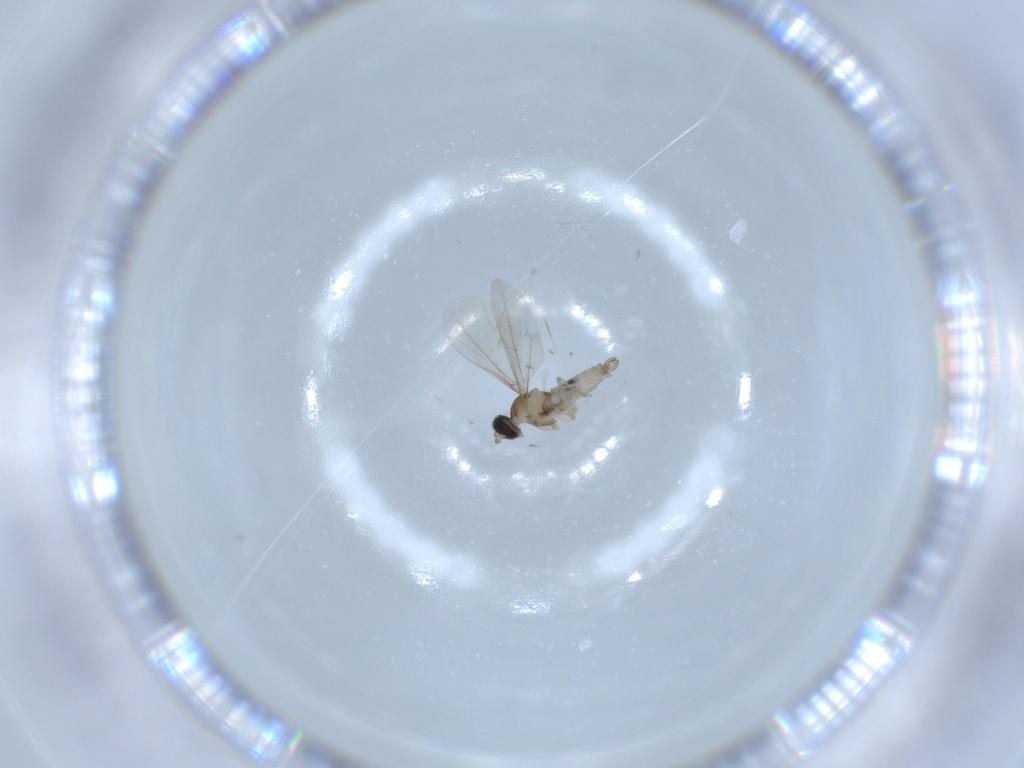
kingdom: Animalia
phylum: Arthropoda
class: Insecta
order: Diptera
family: Cecidomyiidae
